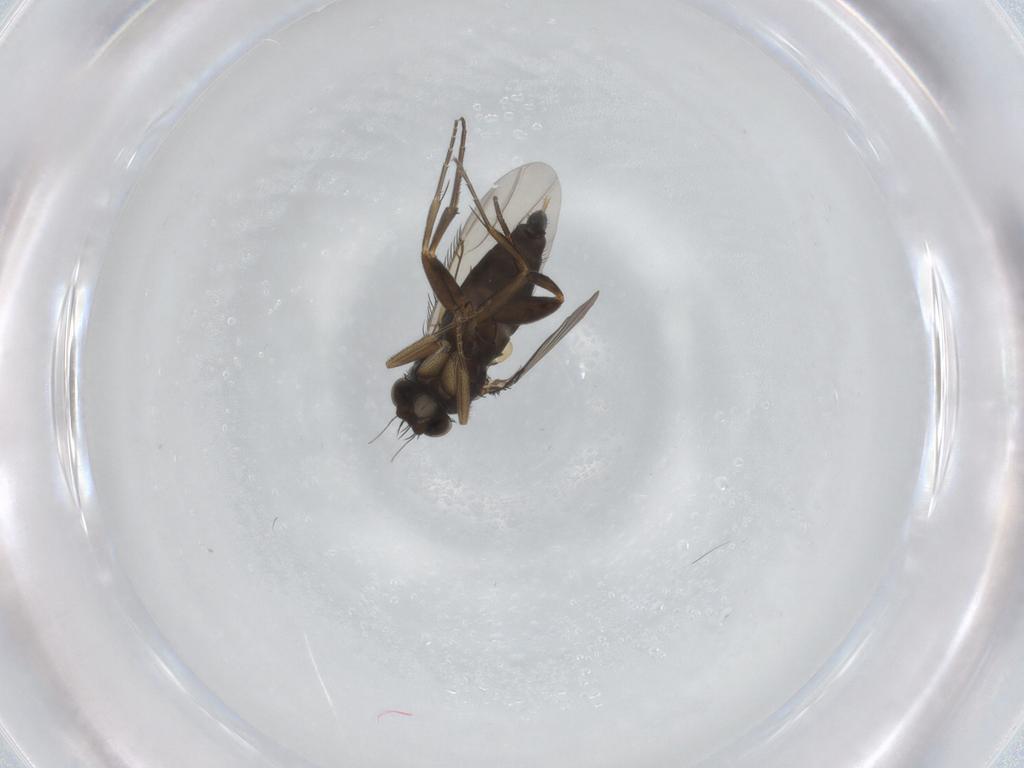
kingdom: Animalia
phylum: Arthropoda
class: Insecta
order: Diptera
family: Phoridae
